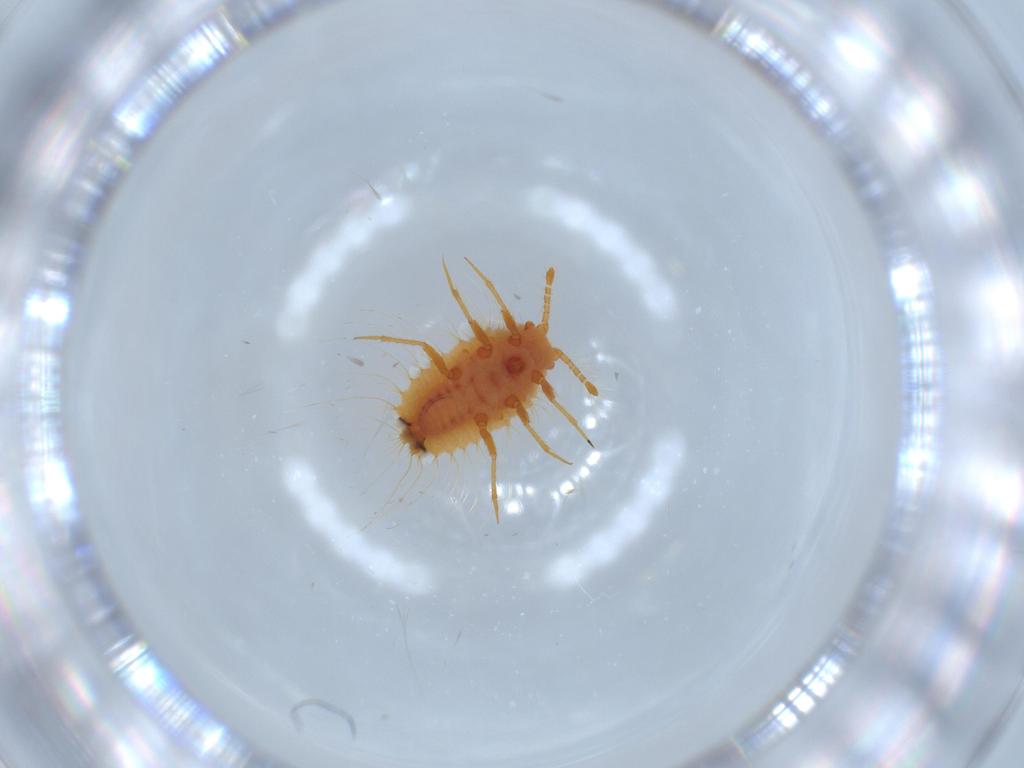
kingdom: Animalia
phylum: Arthropoda
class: Insecta
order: Hemiptera
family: Coccoidea_incertae_sedis
